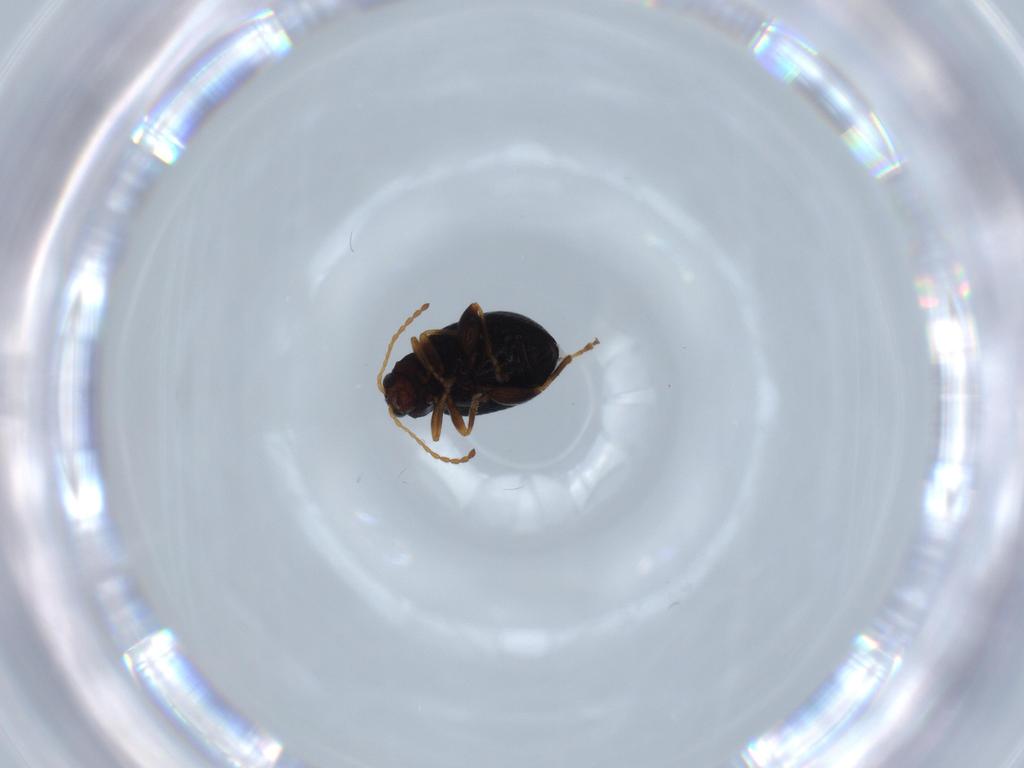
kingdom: Animalia
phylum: Arthropoda
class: Insecta
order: Coleoptera
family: Chrysomelidae
